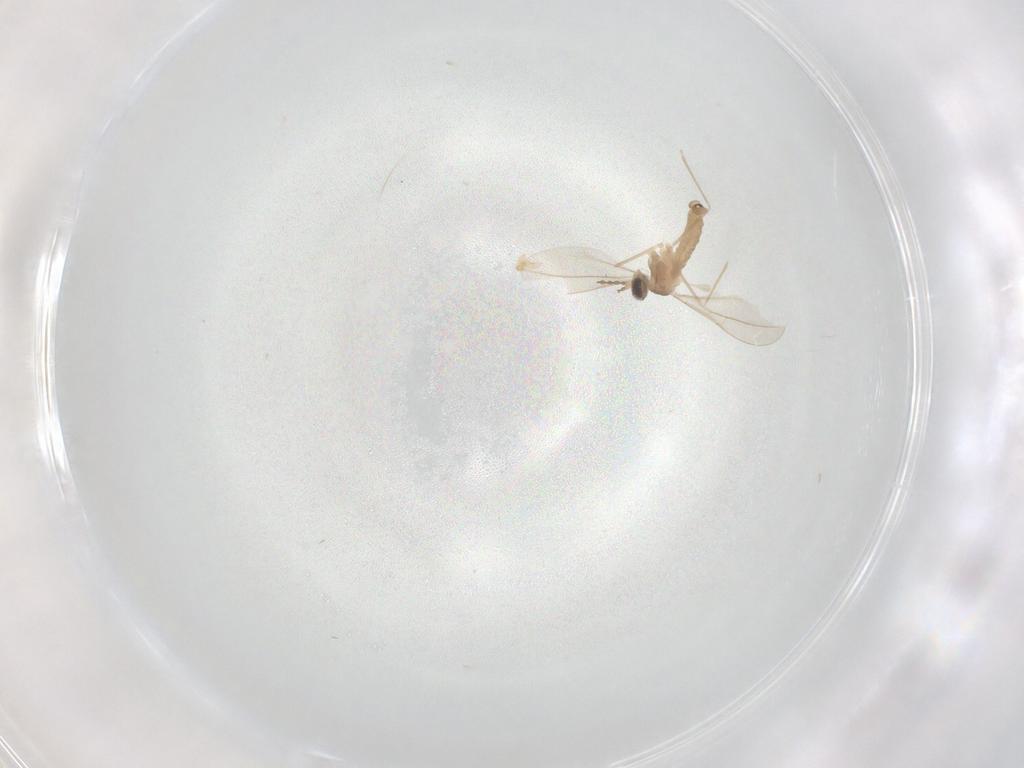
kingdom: Animalia
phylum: Arthropoda
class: Insecta
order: Diptera
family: Cecidomyiidae
